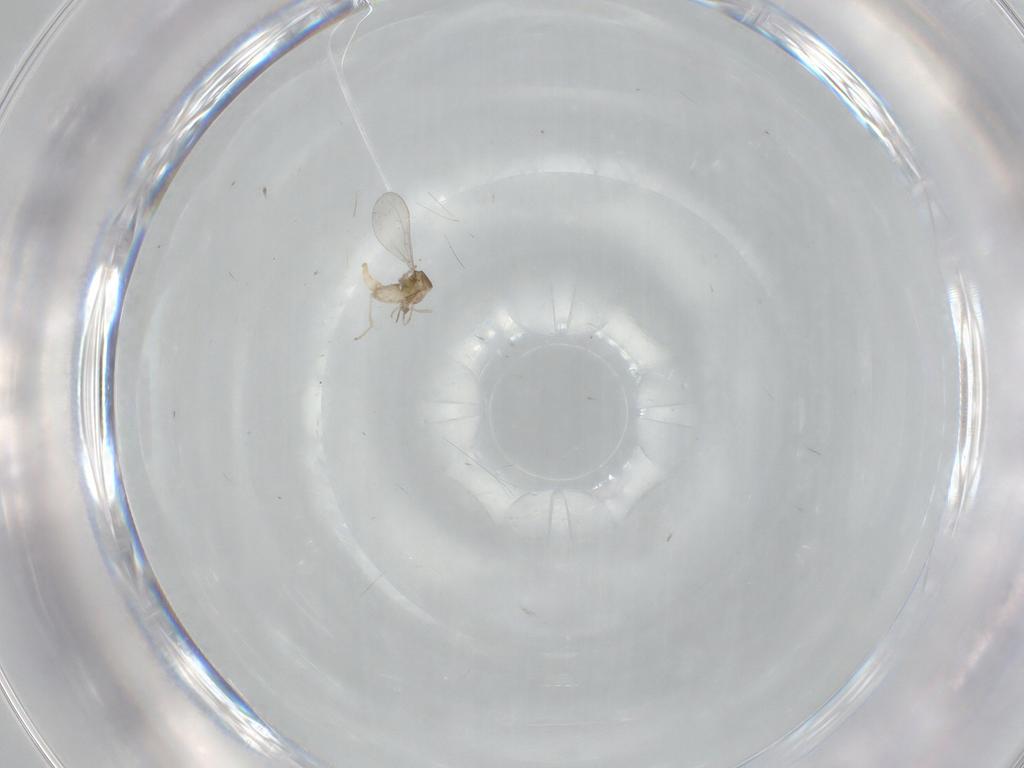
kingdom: Animalia
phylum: Arthropoda
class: Insecta
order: Diptera
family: Cecidomyiidae
